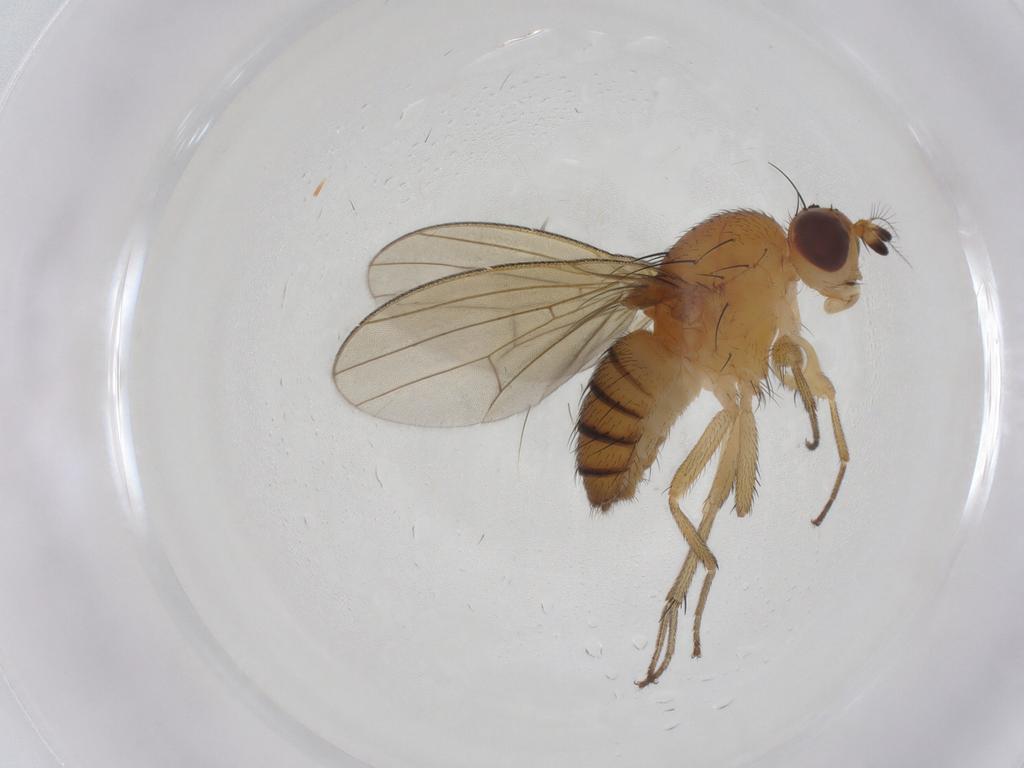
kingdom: Animalia
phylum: Arthropoda
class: Insecta
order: Diptera
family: Lauxaniidae
